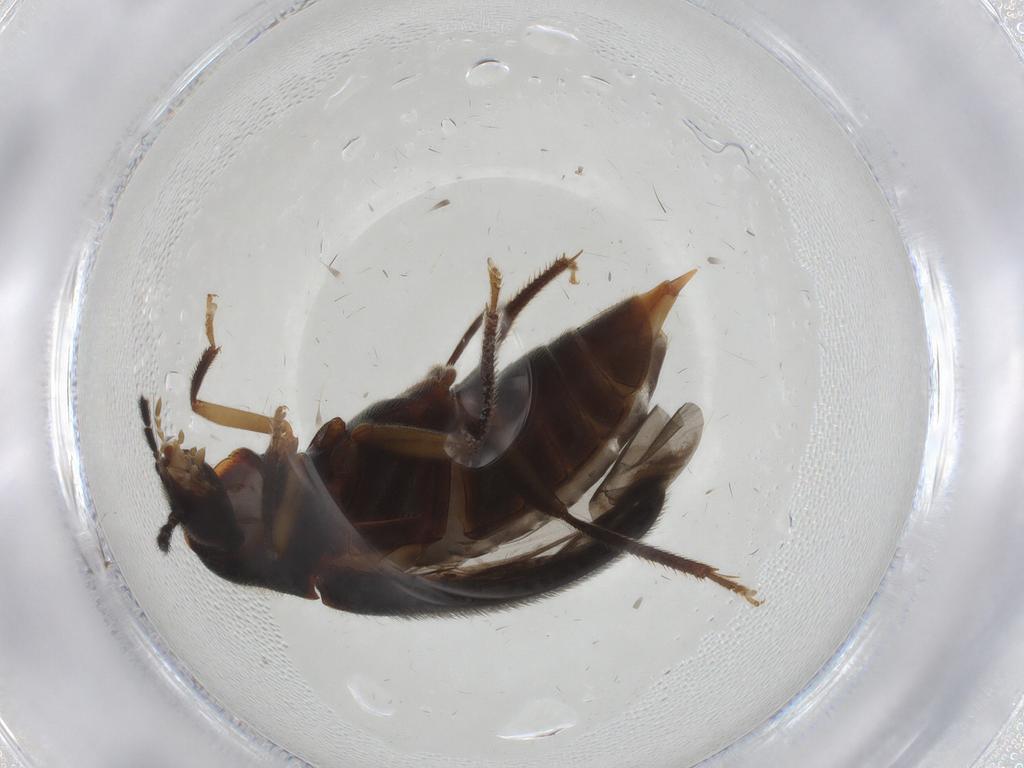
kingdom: Animalia
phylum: Arthropoda
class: Insecta
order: Coleoptera
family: Ptilodactylidae
